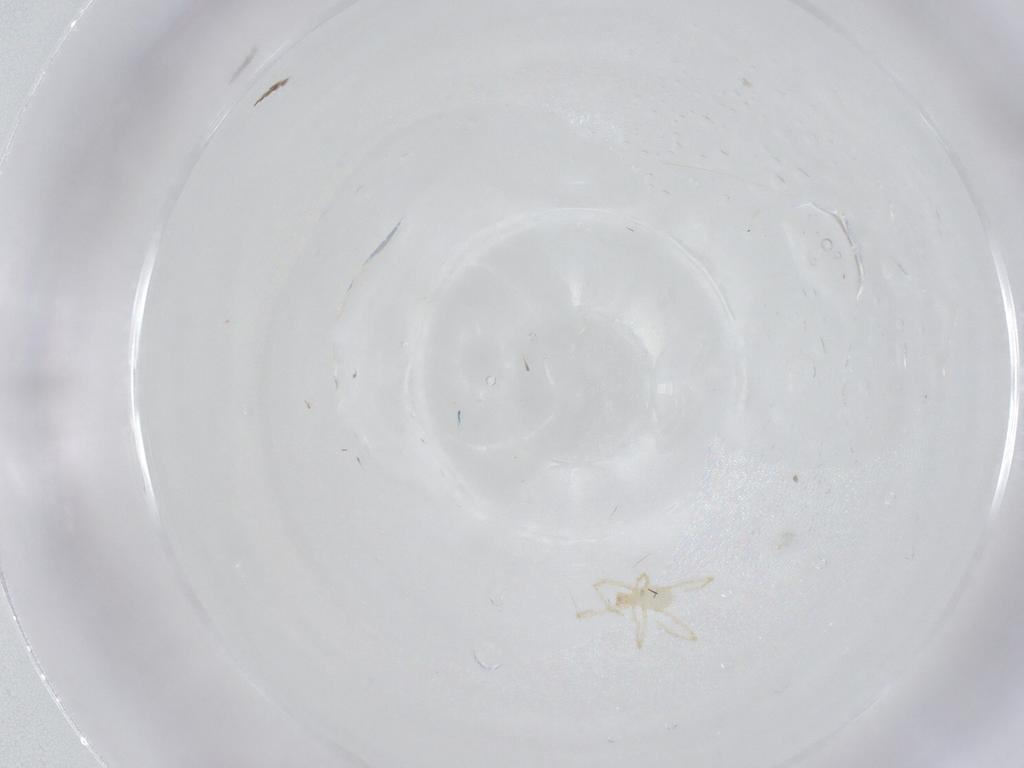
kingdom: Animalia
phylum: Arthropoda
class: Arachnida
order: Trombidiformes
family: Erythraeidae
